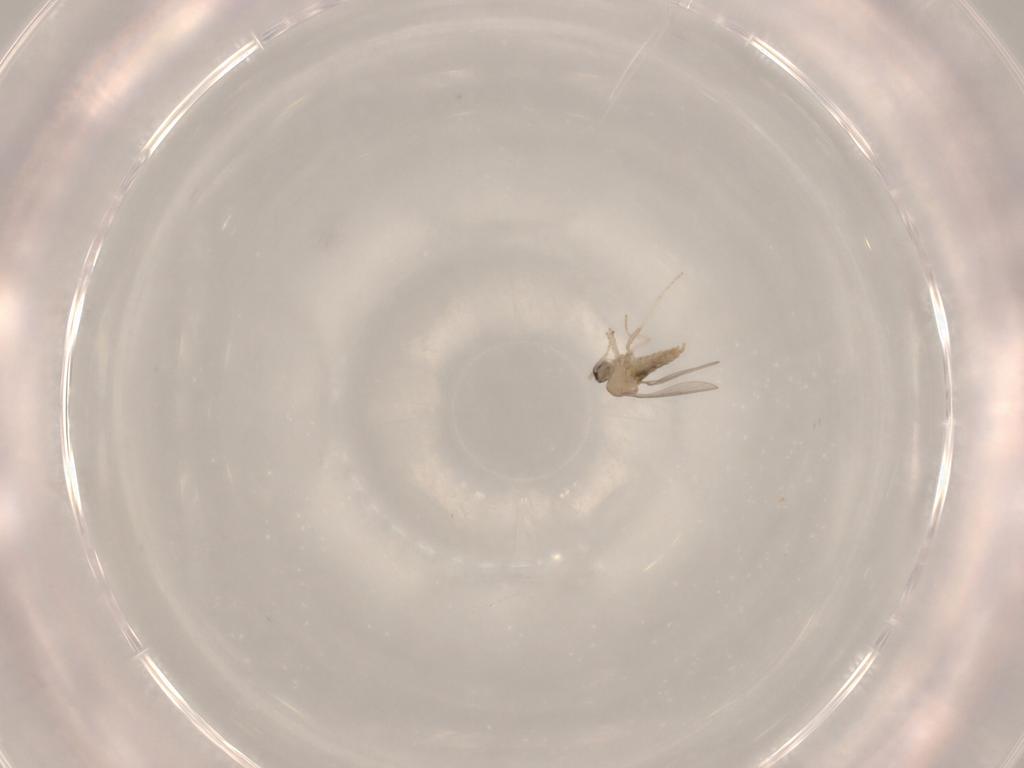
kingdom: Animalia
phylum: Arthropoda
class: Insecta
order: Diptera
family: Cecidomyiidae
